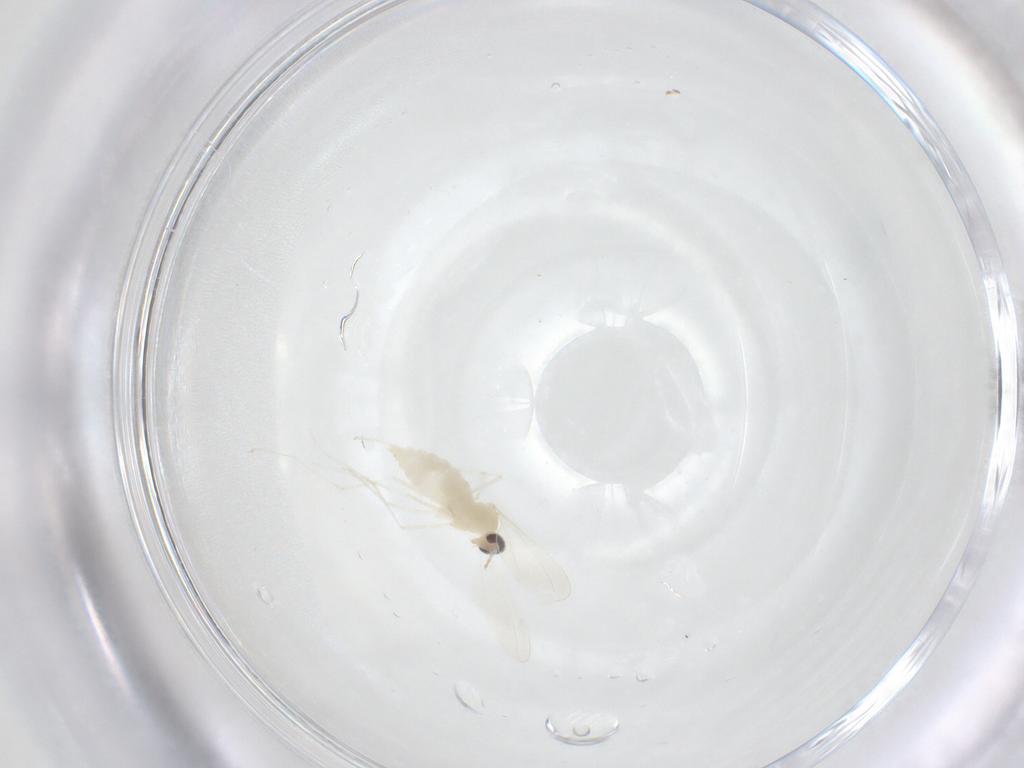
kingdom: Animalia
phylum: Arthropoda
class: Insecta
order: Diptera
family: Cecidomyiidae
